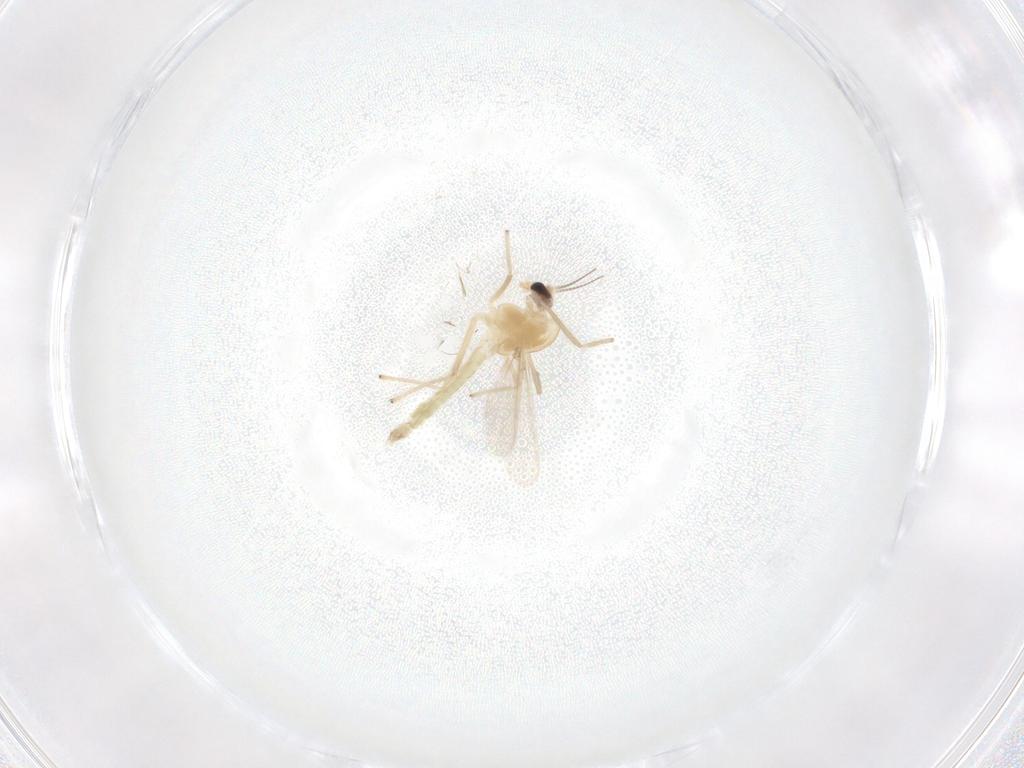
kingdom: Animalia
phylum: Arthropoda
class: Insecta
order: Diptera
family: Chironomidae
